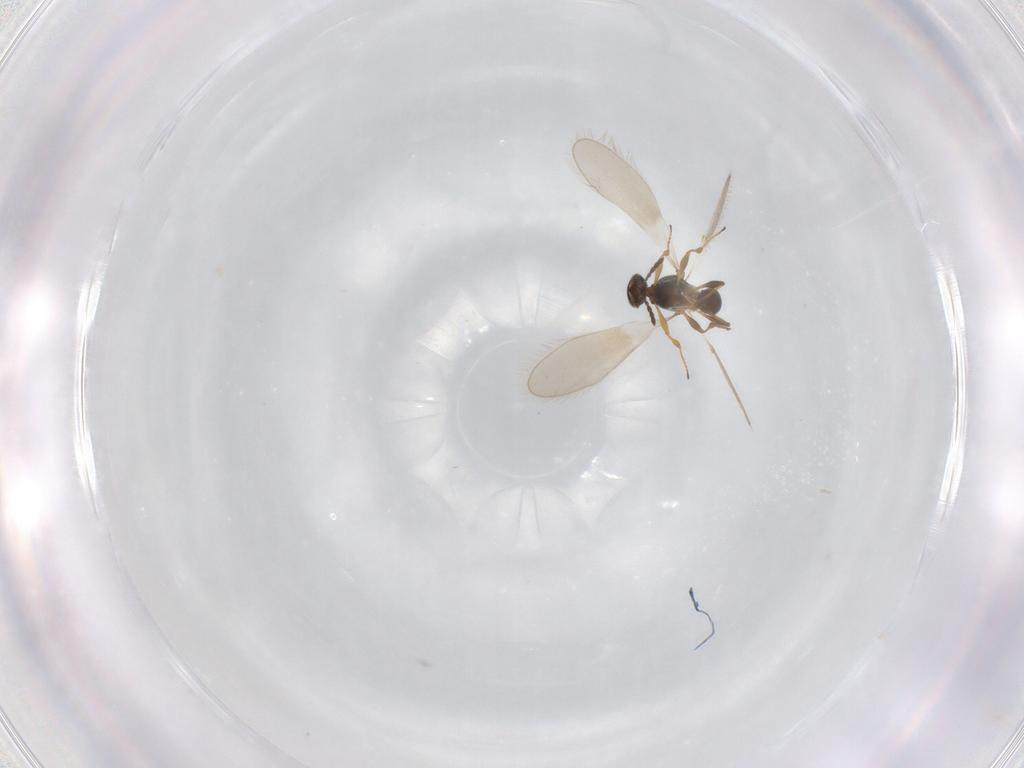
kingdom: Animalia
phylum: Arthropoda
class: Insecta
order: Hymenoptera
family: Platygastridae
